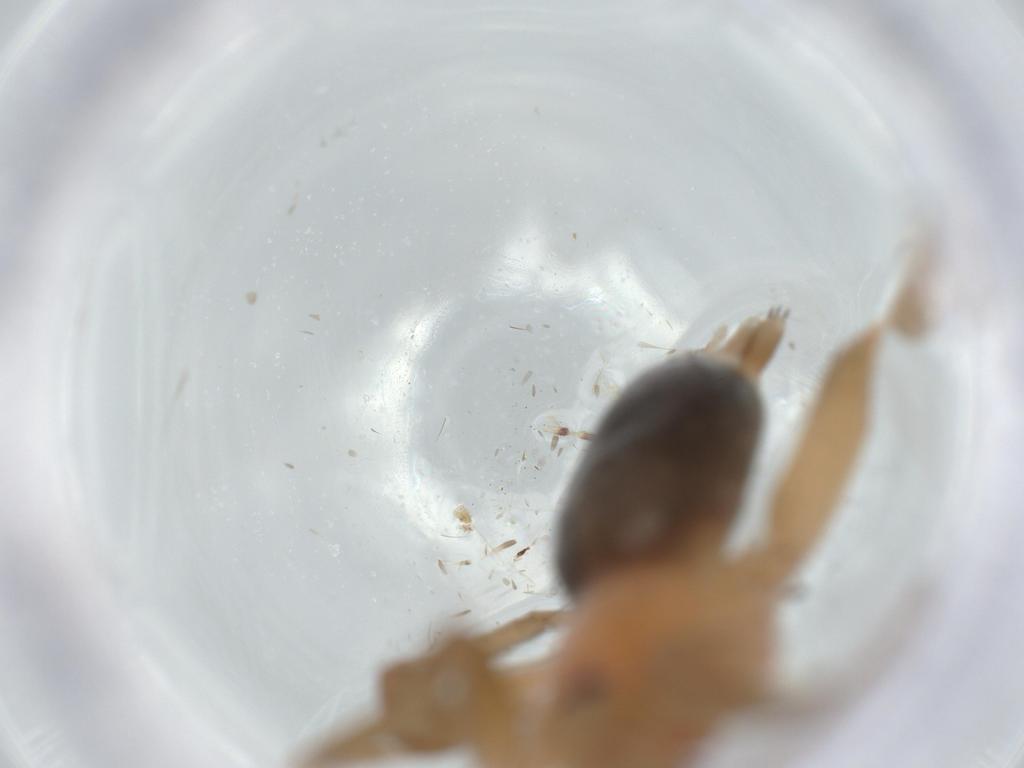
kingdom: Animalia
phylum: Arthropoda
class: Arachnida
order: Araneae
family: Gnaphosidae
